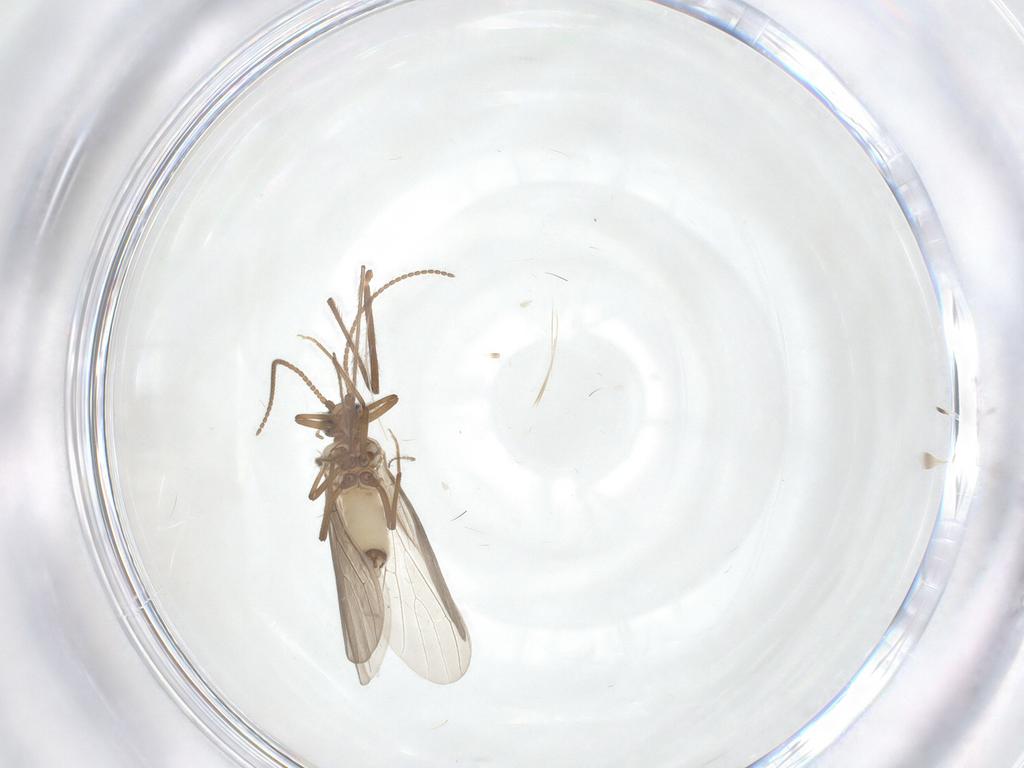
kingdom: Animalia
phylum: Arthropoda
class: Insecta
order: Neuroptera
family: Coniopterygidae
